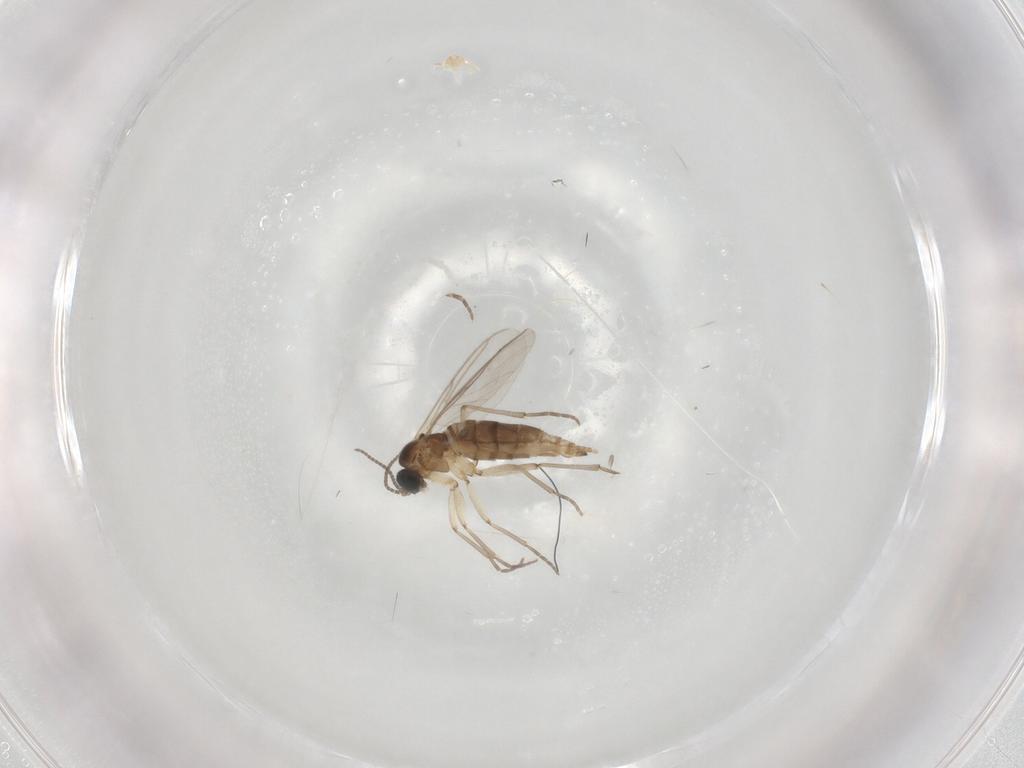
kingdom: Animalia
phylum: Arthropoda
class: Insecta
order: Diptera
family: Sciaridae
